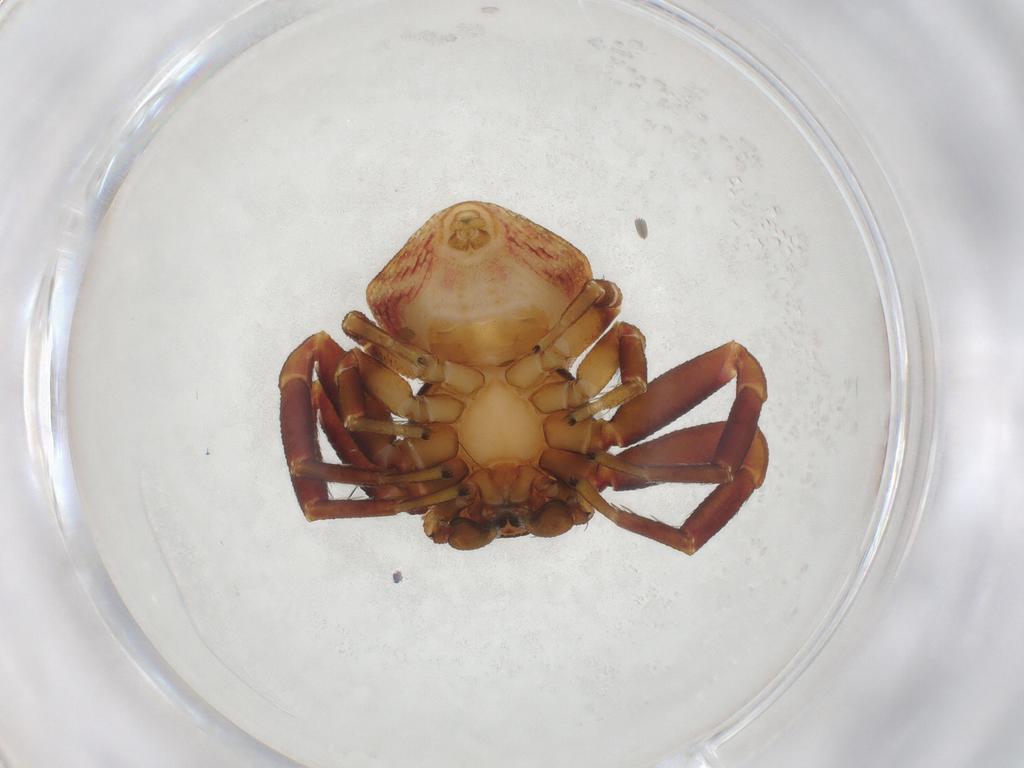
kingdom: Animalia
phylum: Arthropoda
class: Arachnida
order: Araneae
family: Thomisidae
